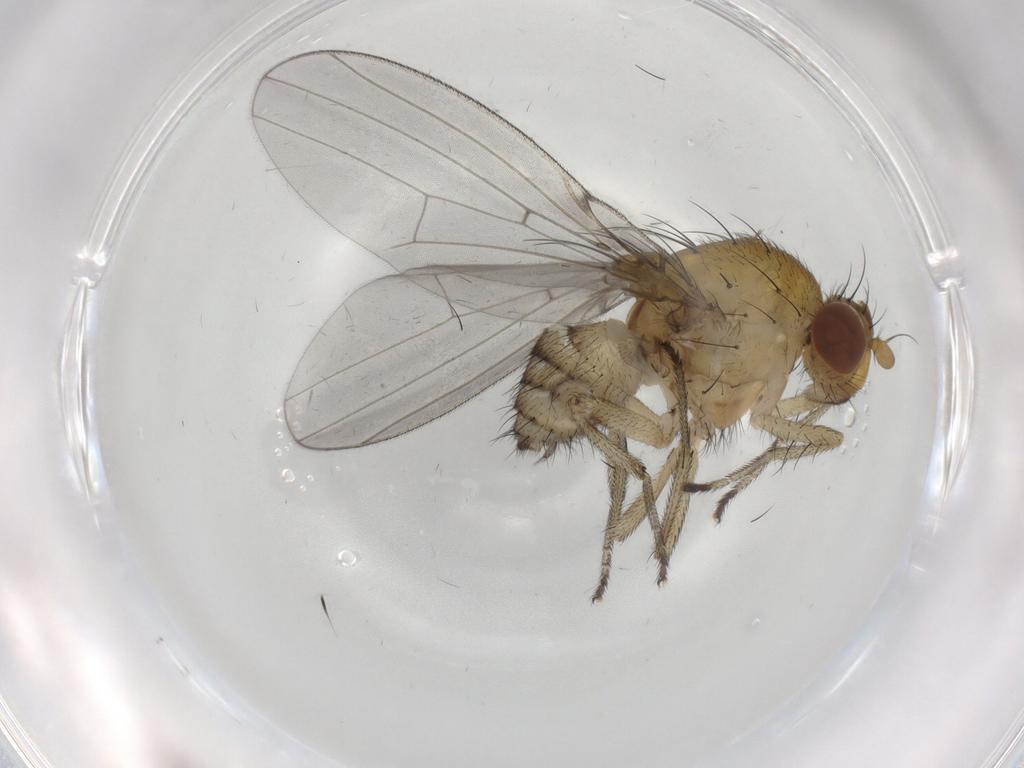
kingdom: Animalia
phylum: Arthropoda
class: Insecta
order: Diptera
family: Lauxaniidae
